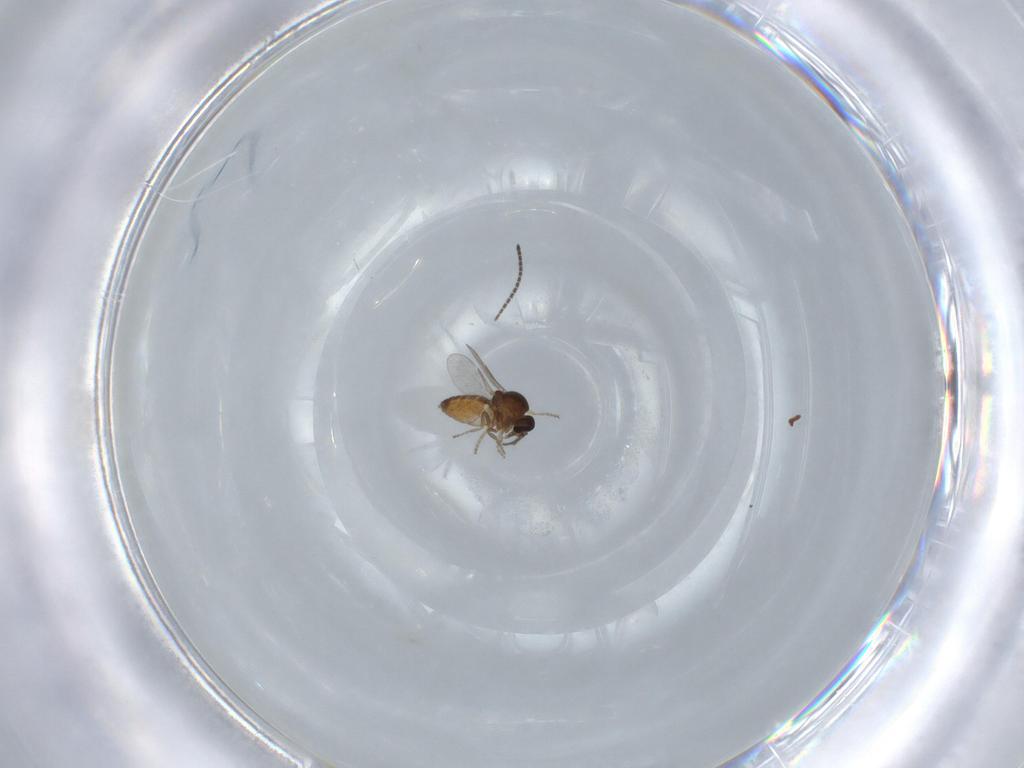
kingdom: Animalia
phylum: Arthropoda
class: Insecta
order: Diptera
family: Ceratopogonidae
